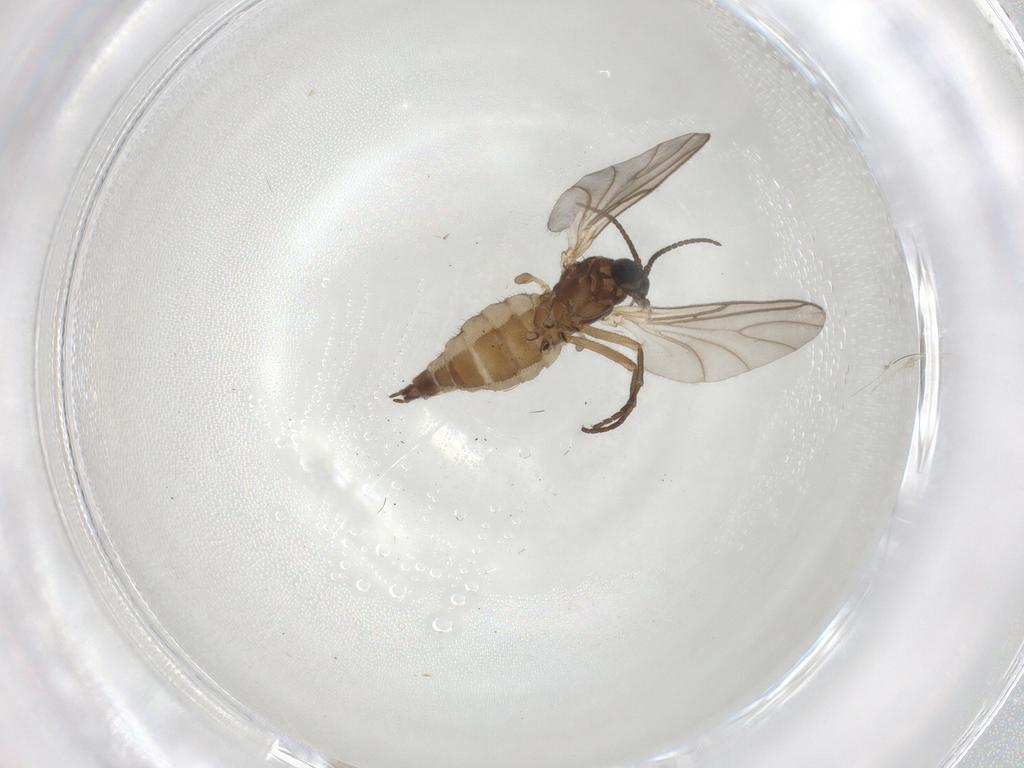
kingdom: Animalia
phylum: Arthropoda
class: Insecta
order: Diptera
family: Sciaridae
